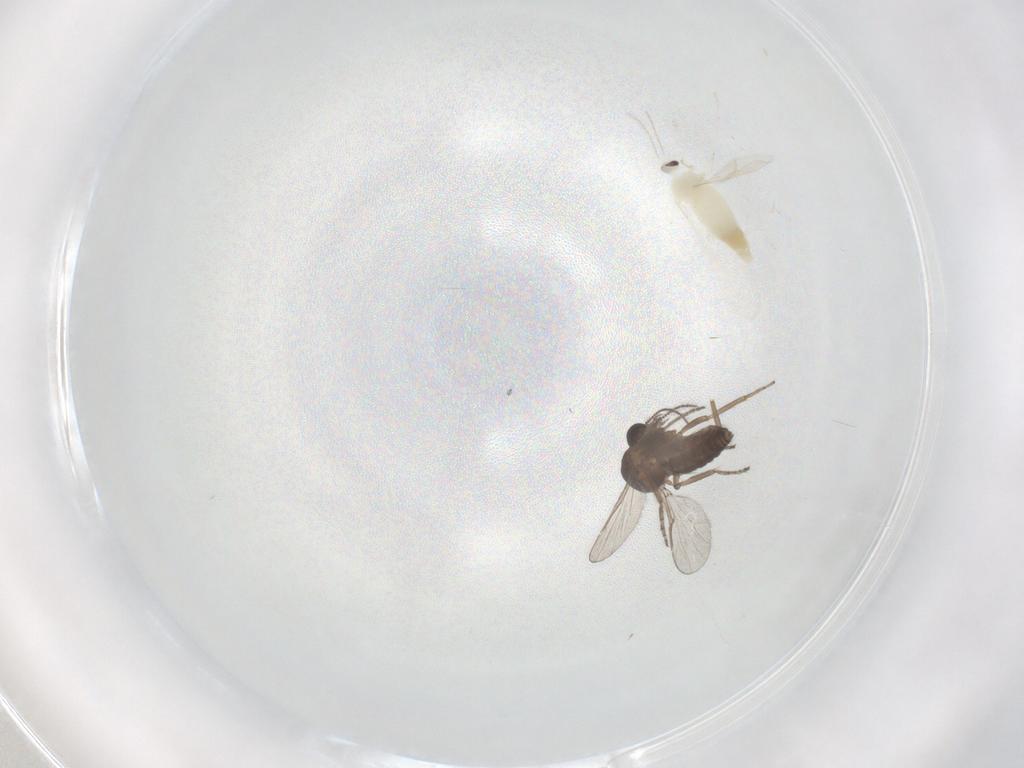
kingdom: Animalia
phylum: Arthropoda
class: Insecta
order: Diptera
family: Cecidomyiidae
